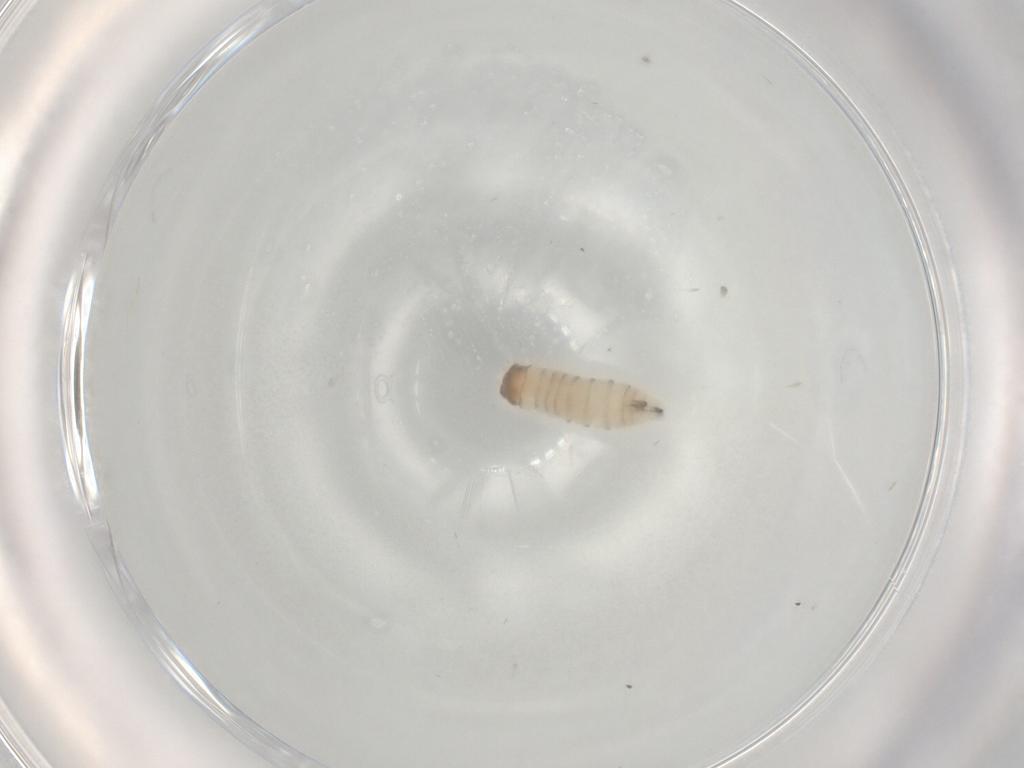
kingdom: Animalia
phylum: Arthropoda
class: Insecta
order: Diptera
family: Sarcophagidae
